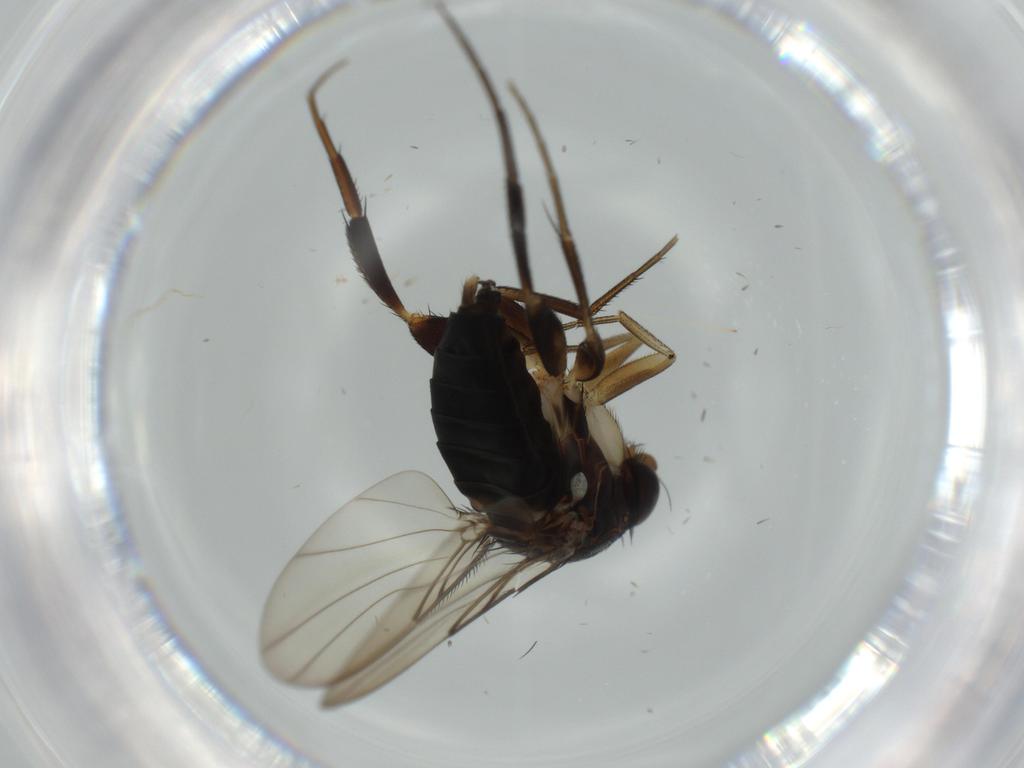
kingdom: Animalia
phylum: Arthropoda
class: Insecta
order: Diptera
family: Phoridae
